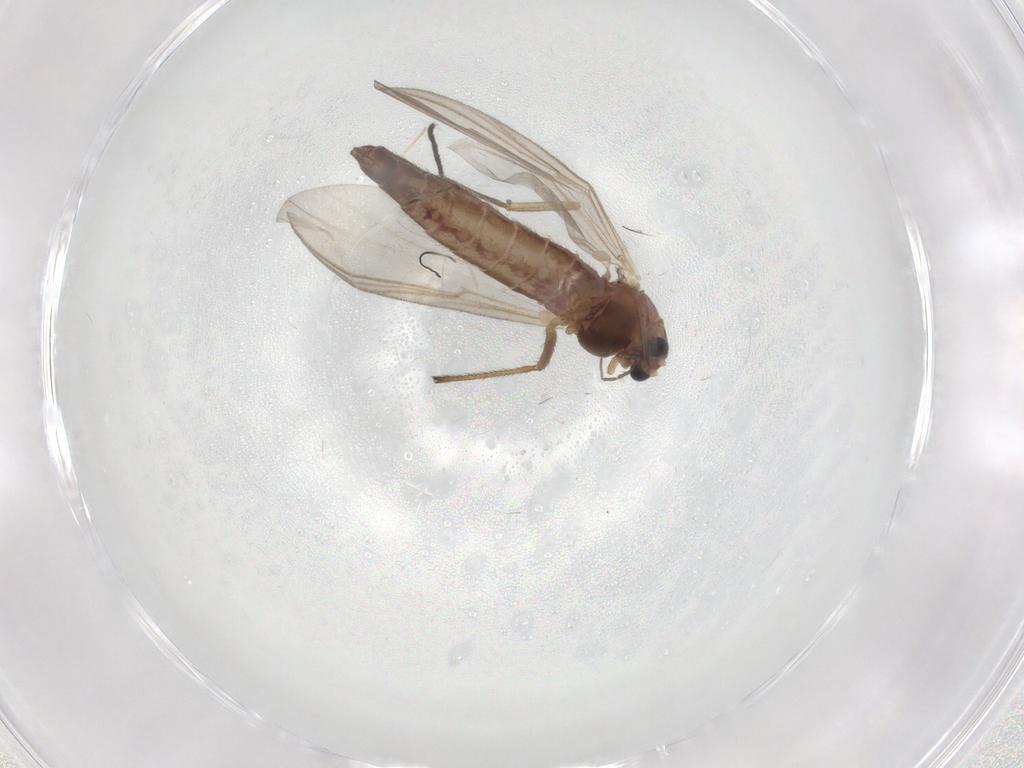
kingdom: Animalia
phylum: Arthropoda
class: Insecta
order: Diptera
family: Chironomidae
